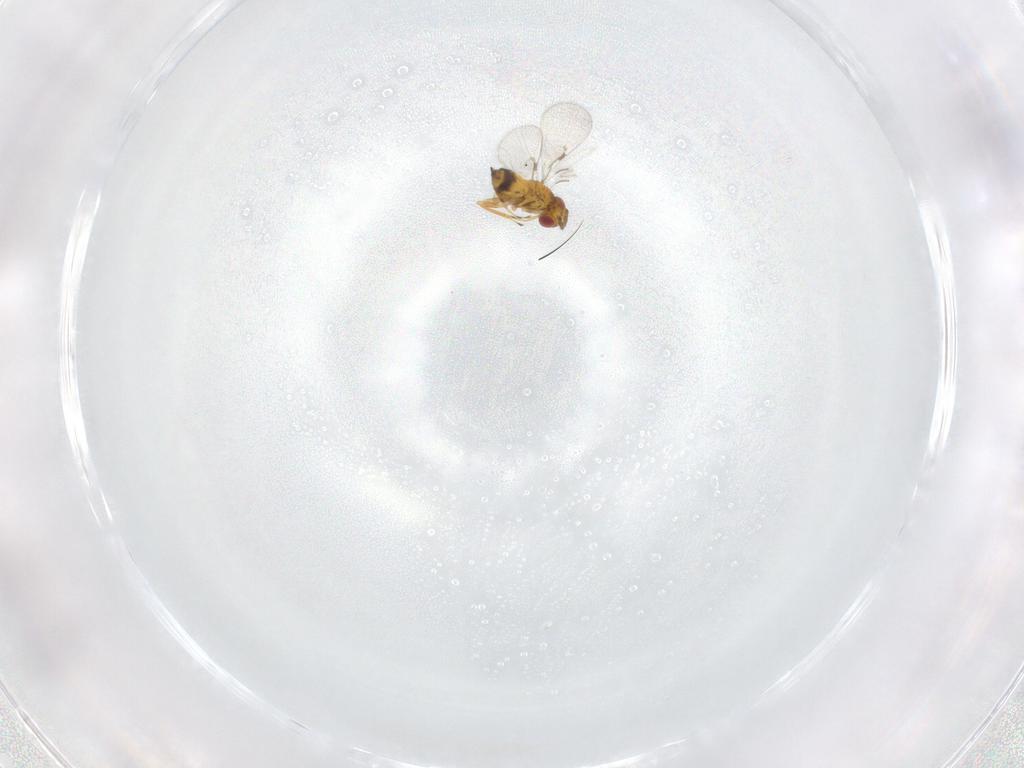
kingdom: Animalia
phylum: Arthropoda
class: Insecta
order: Hymenoptera
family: Trichogrammatidae
